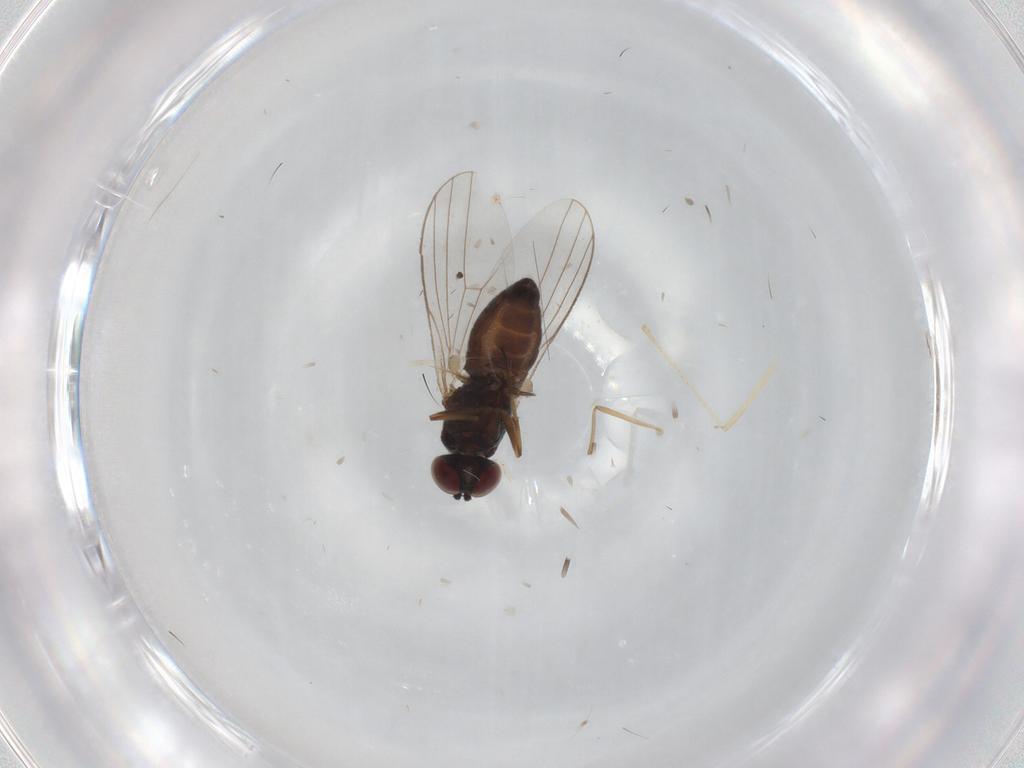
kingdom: Animalia
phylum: Arthropoda
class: Insecta
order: Diptera
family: Dolichopodidae
